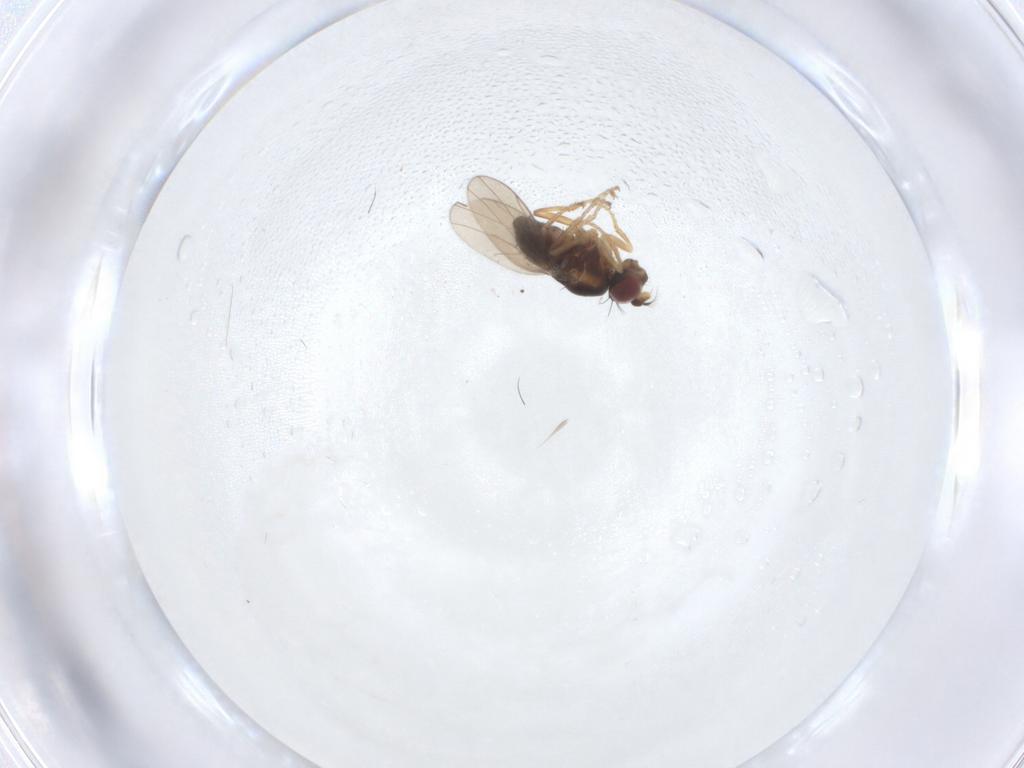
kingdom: Animalia
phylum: Arthropoda
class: Insecta
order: Diptera
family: Muscidae
